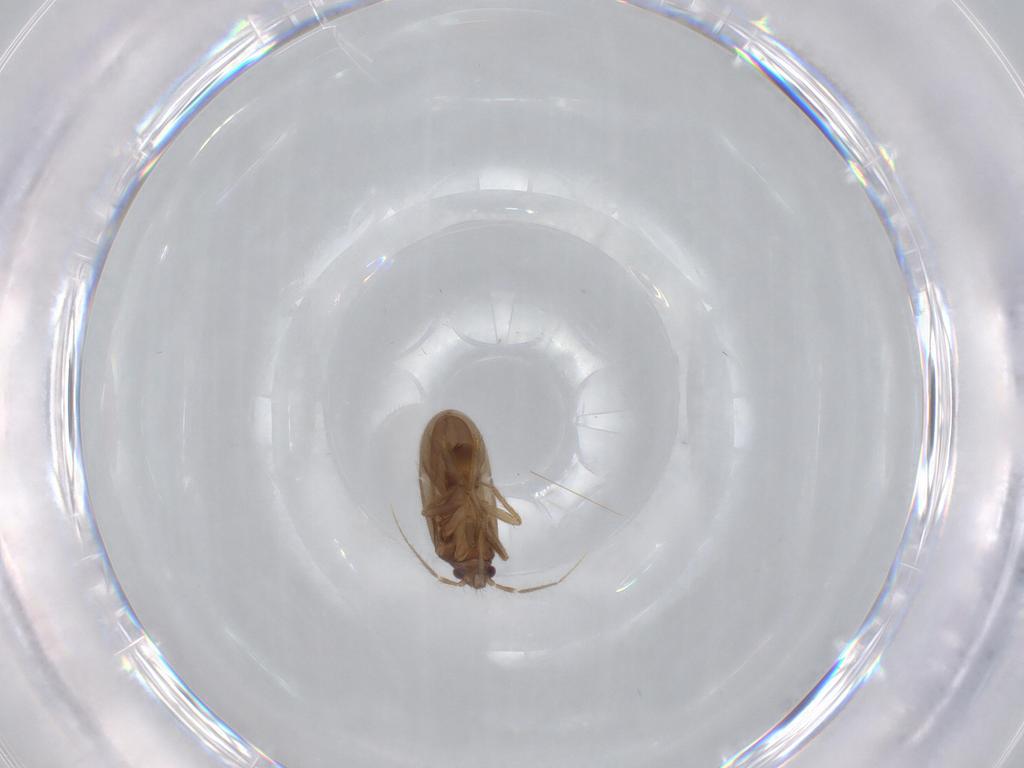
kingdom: Animalia
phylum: Arthropoda
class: Insecta
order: Hemiptera
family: Ceratocombidae
